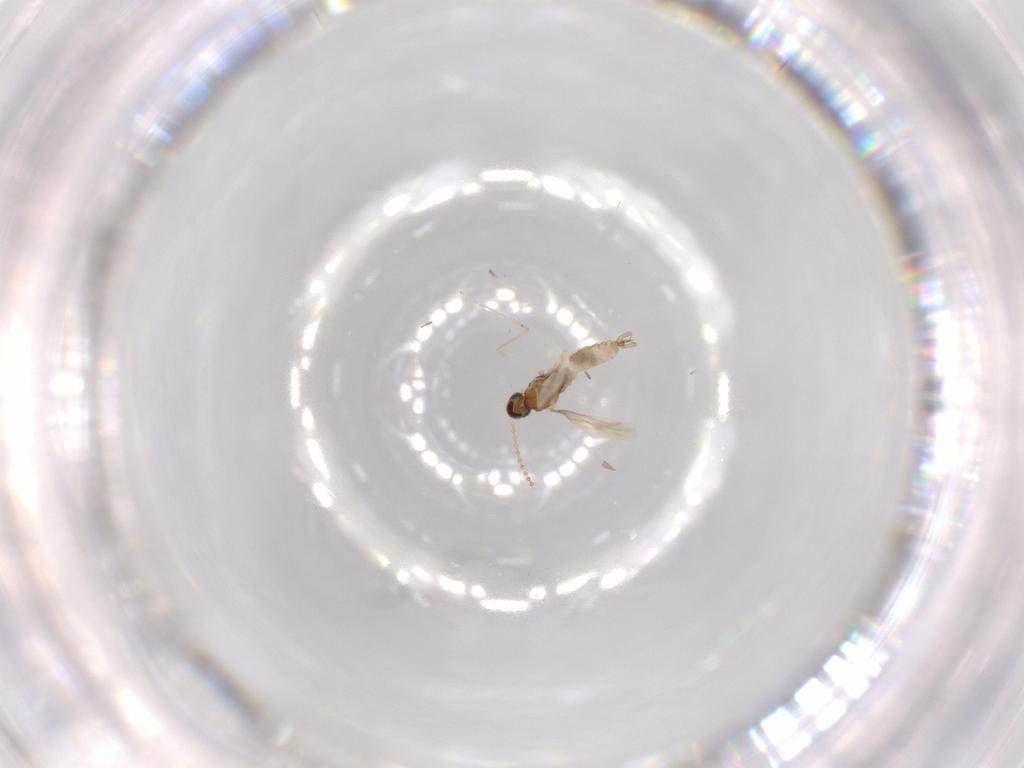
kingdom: Animalia
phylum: Arthropoda
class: Insecta
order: Diptera
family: Cecidomyiidae
